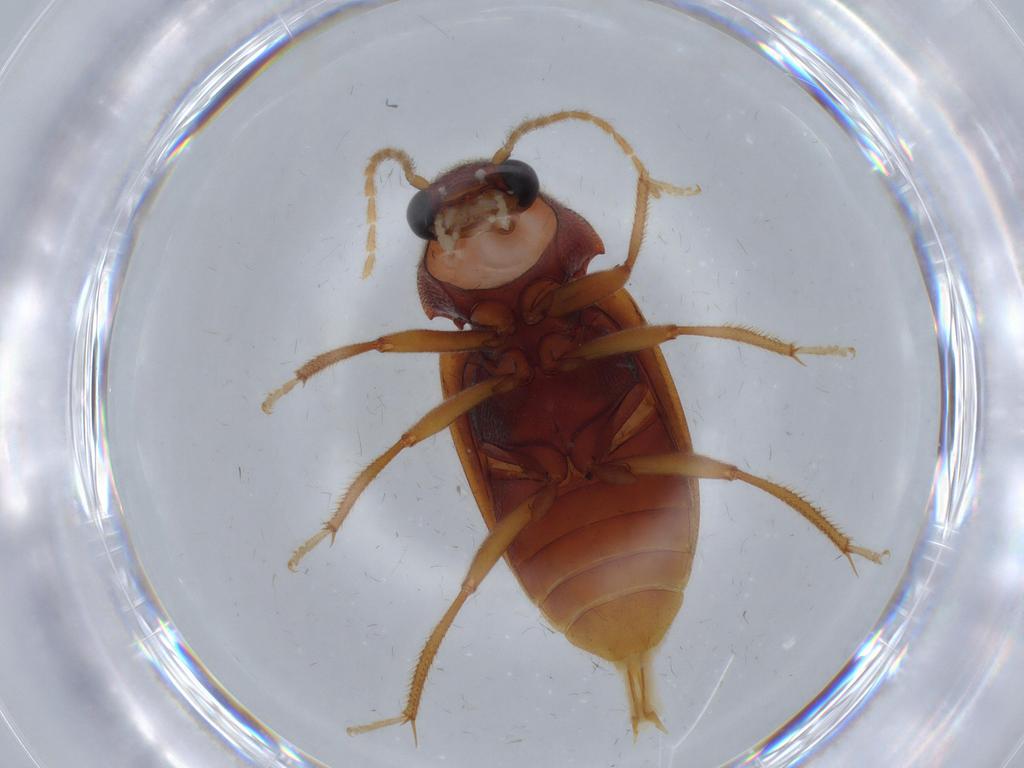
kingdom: Animalia
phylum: Arthropoda
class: Insecta
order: Coleoptera
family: Ptilodactylidae
